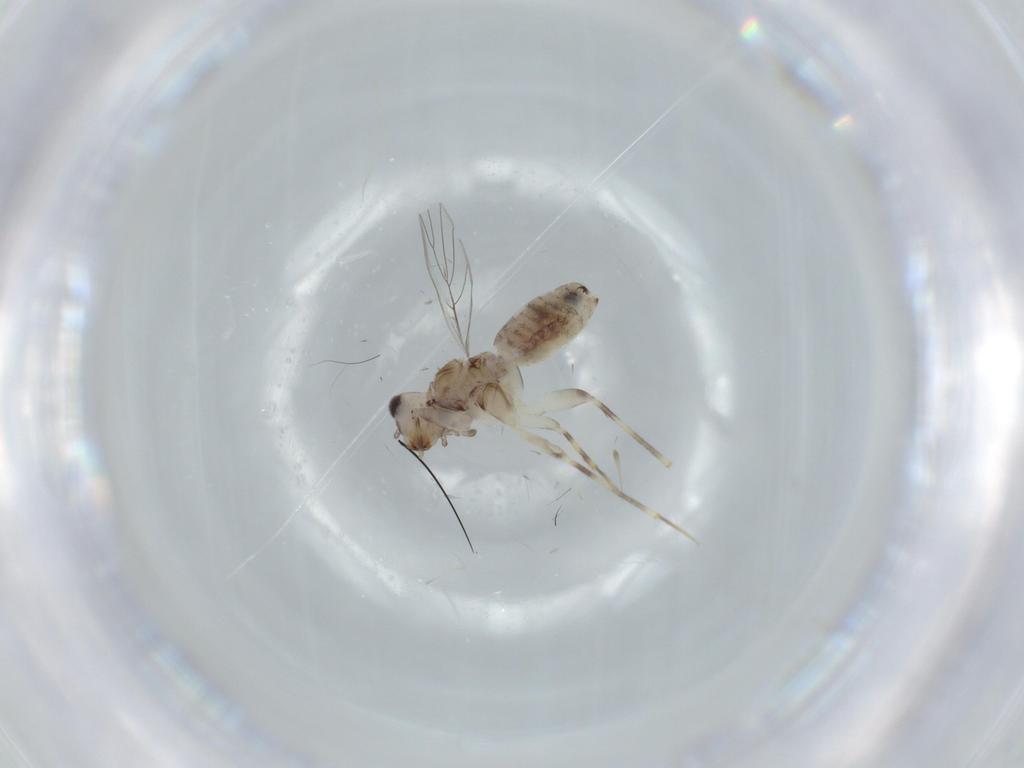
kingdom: Animalia
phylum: Arthropoda
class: Insecta
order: Psocodea
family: Lepidopsocidae
